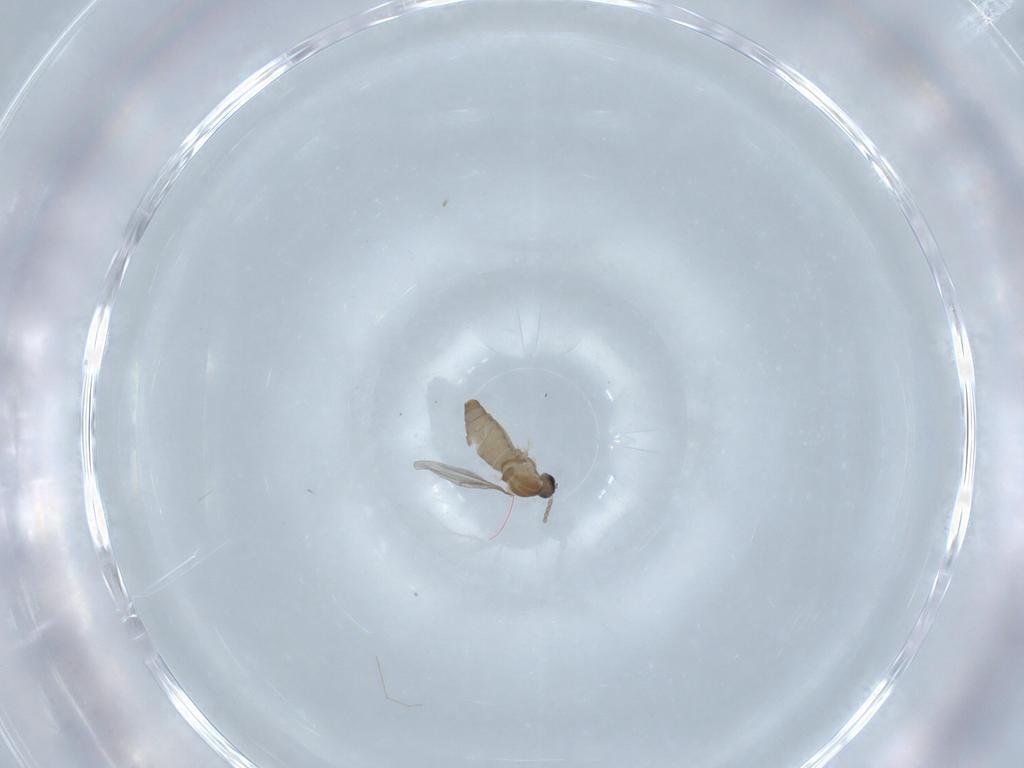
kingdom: Animalia
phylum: Arthropoda
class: Insecta
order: Diptera
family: Cecidomyiidae
